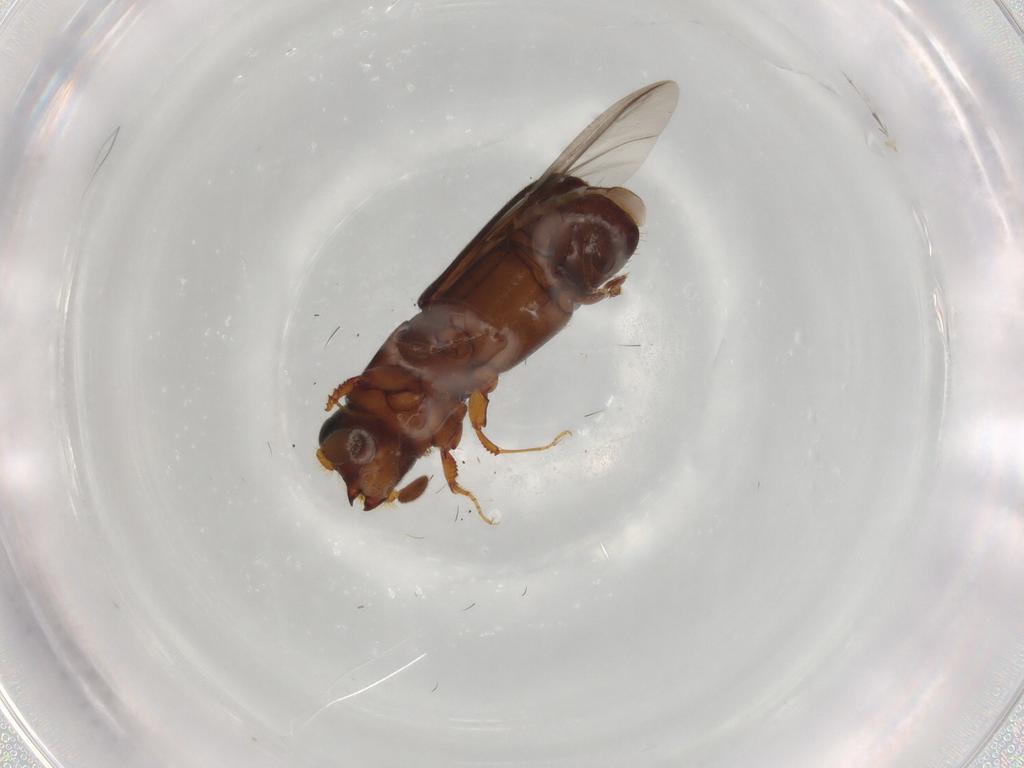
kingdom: Animalia
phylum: Arthropoda
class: Insecta
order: Coleoptera
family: Curculionidae
